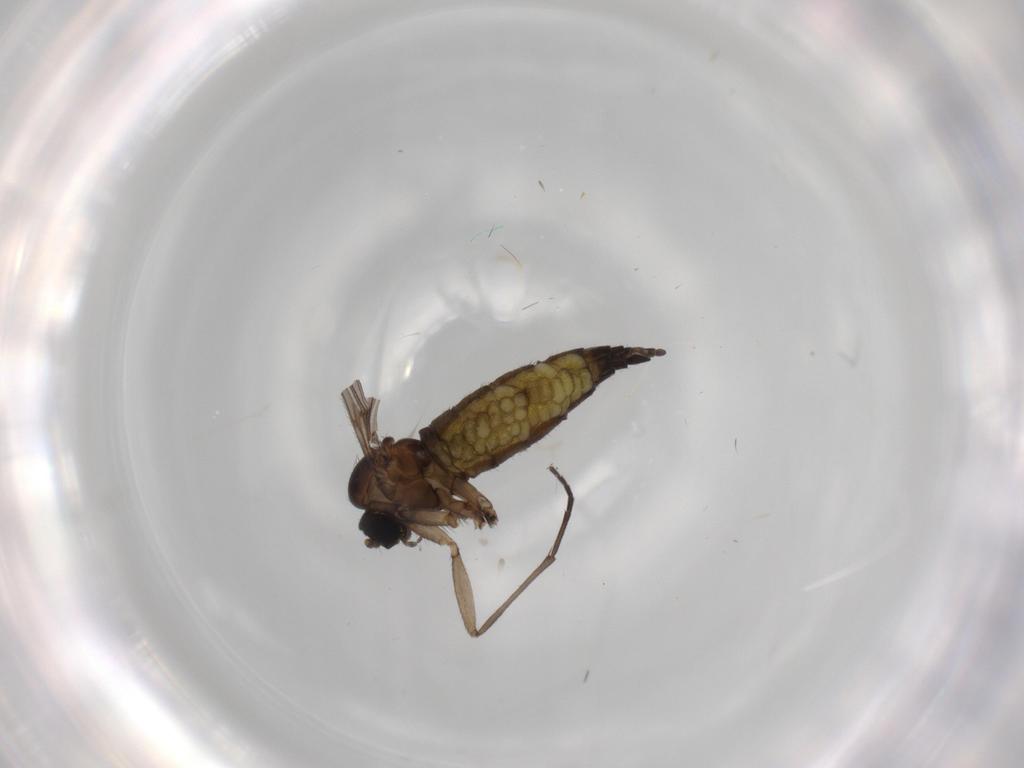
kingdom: Animalia
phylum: Arthropoda
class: Insecta
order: Diptera
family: Sciaridae
